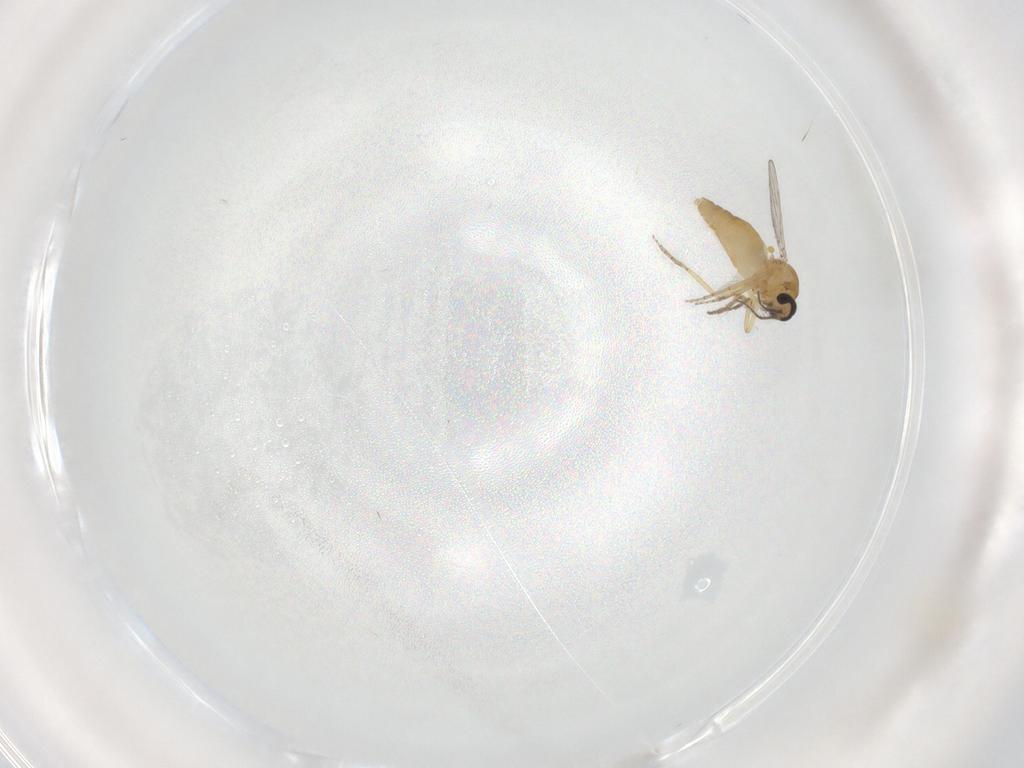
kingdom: Animalia
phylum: Arthropoda
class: Insecta
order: Diptera
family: Ceratopogonidae
